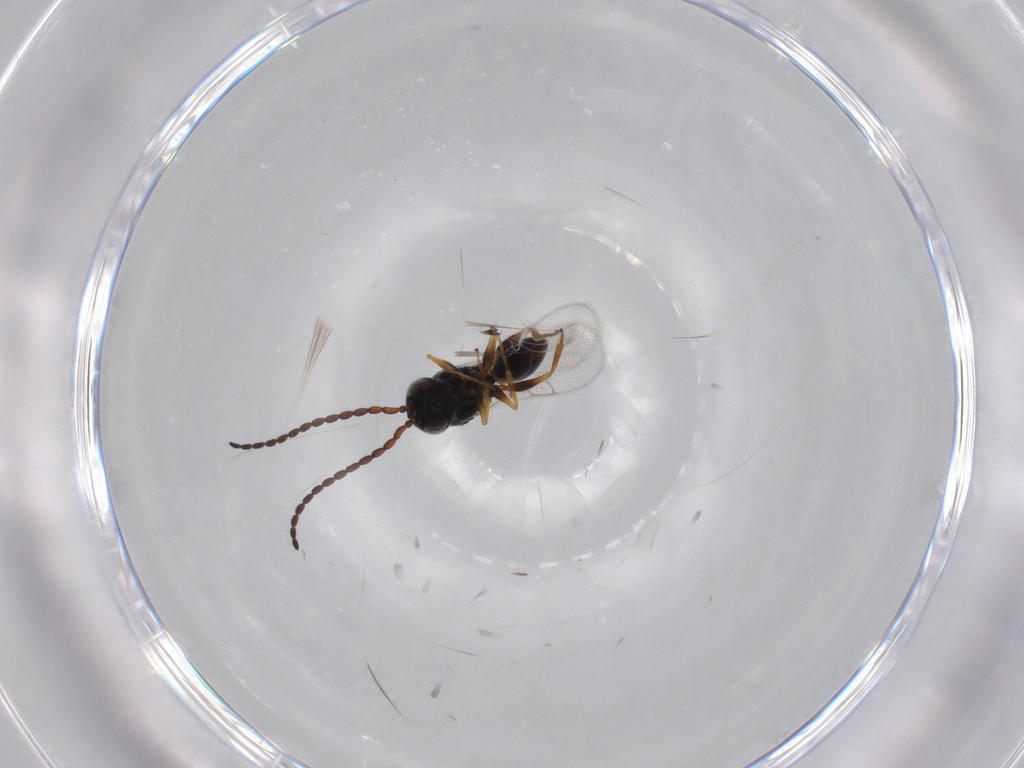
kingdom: Animalia
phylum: Arthropoda
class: Insecta
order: Hymenoptera
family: Figitidae
